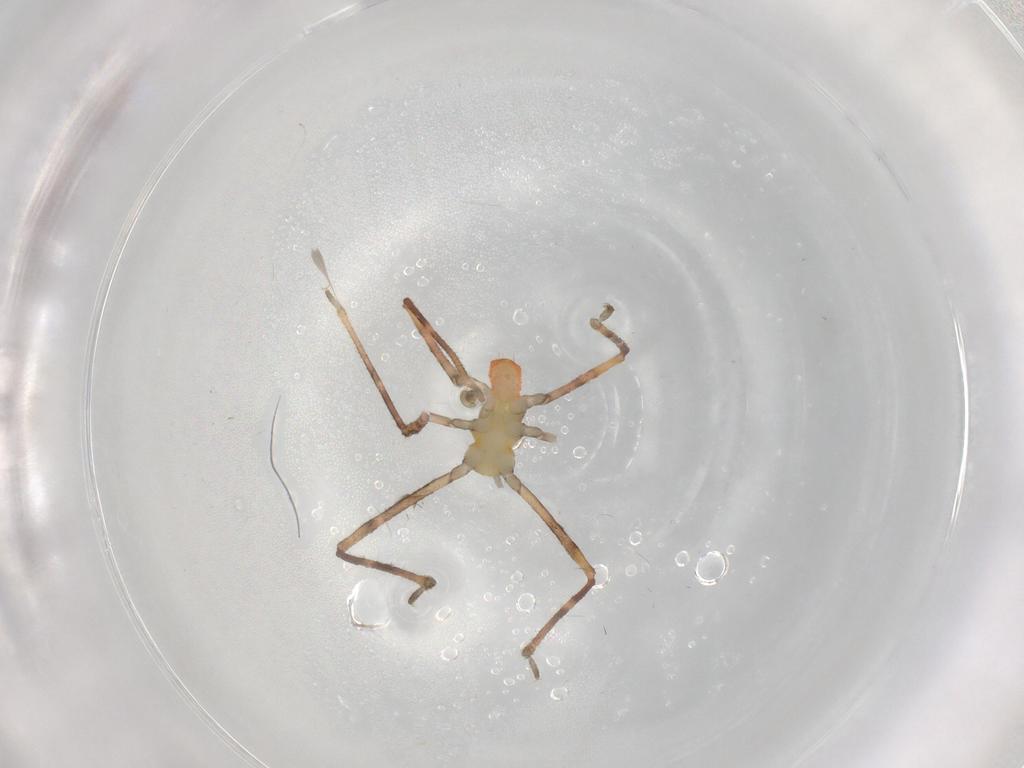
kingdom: Animalia
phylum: Arthropoda
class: Insecta
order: Hemiptera
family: Reduviidae
